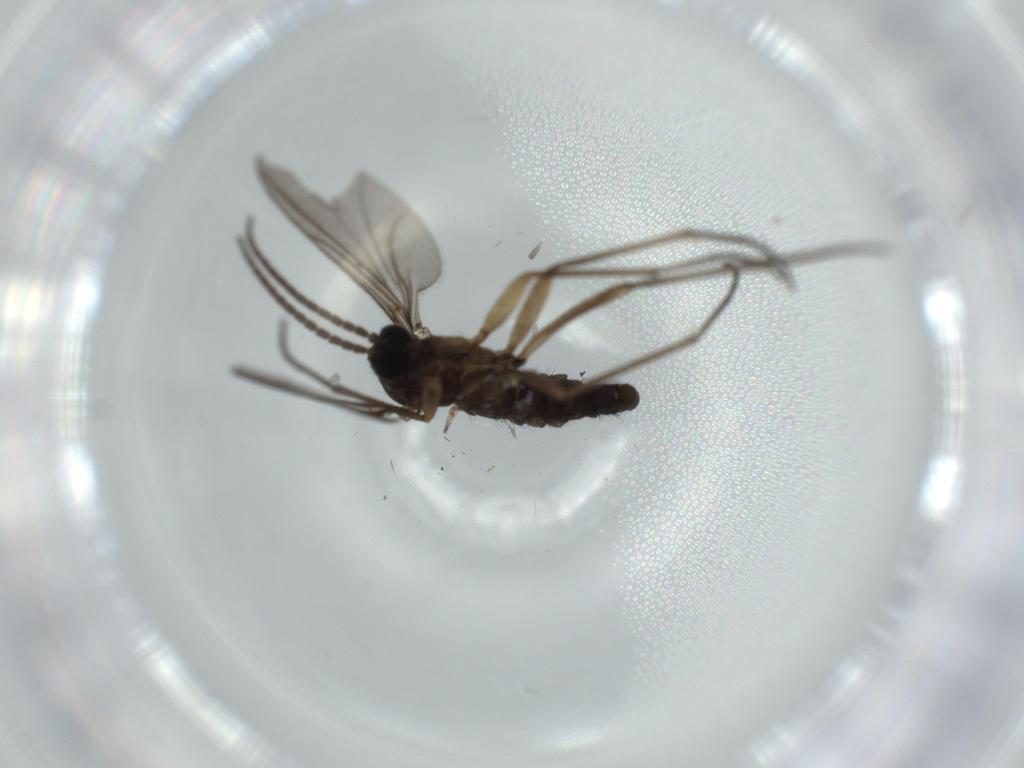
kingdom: Animalia
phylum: Arthropoda
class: Insecta
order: Diptera
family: Sciaridae
